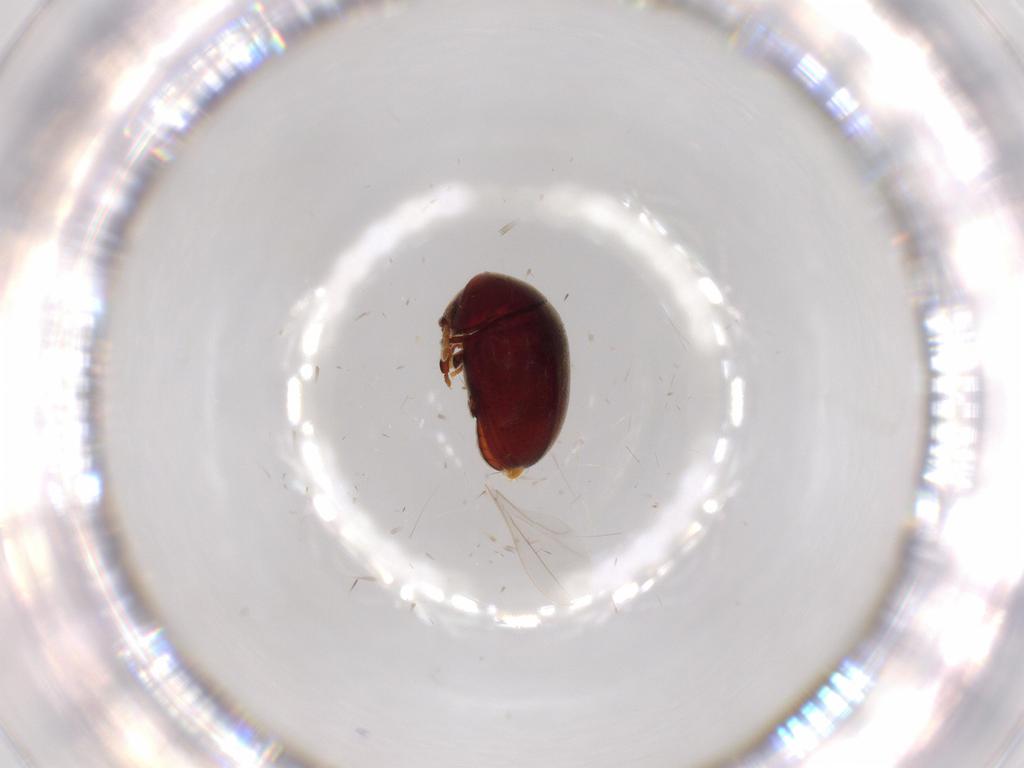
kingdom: Animalia
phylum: Arthropoda
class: Insecta
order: Coleoptera
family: Ptinidae
